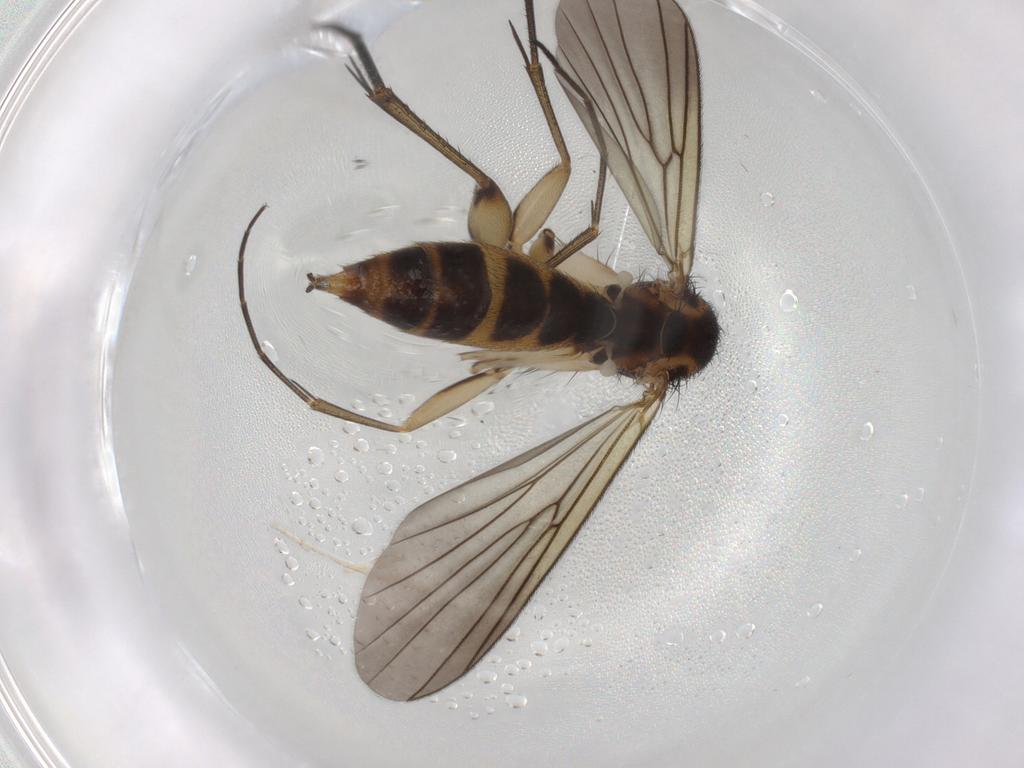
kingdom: Animalia
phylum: Arthropoda
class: Insecta
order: Diptera
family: Mycetophilidae
